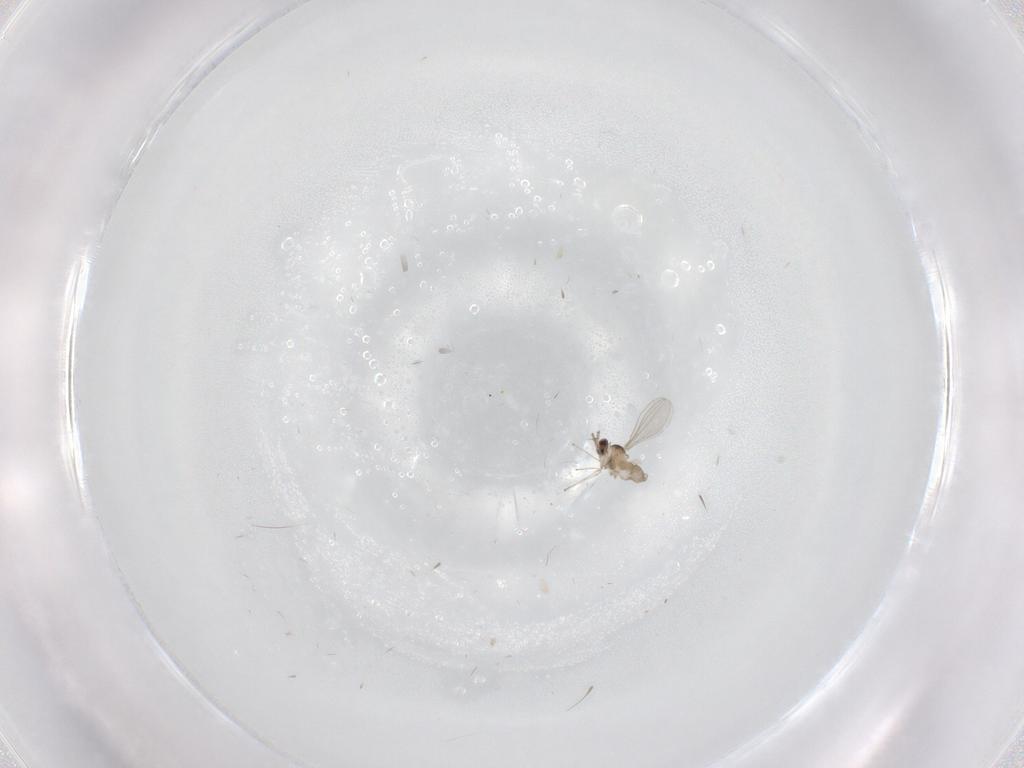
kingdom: Animalia
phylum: Arthropoda
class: Insecta
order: Diptera
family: Cecidomyiidae
